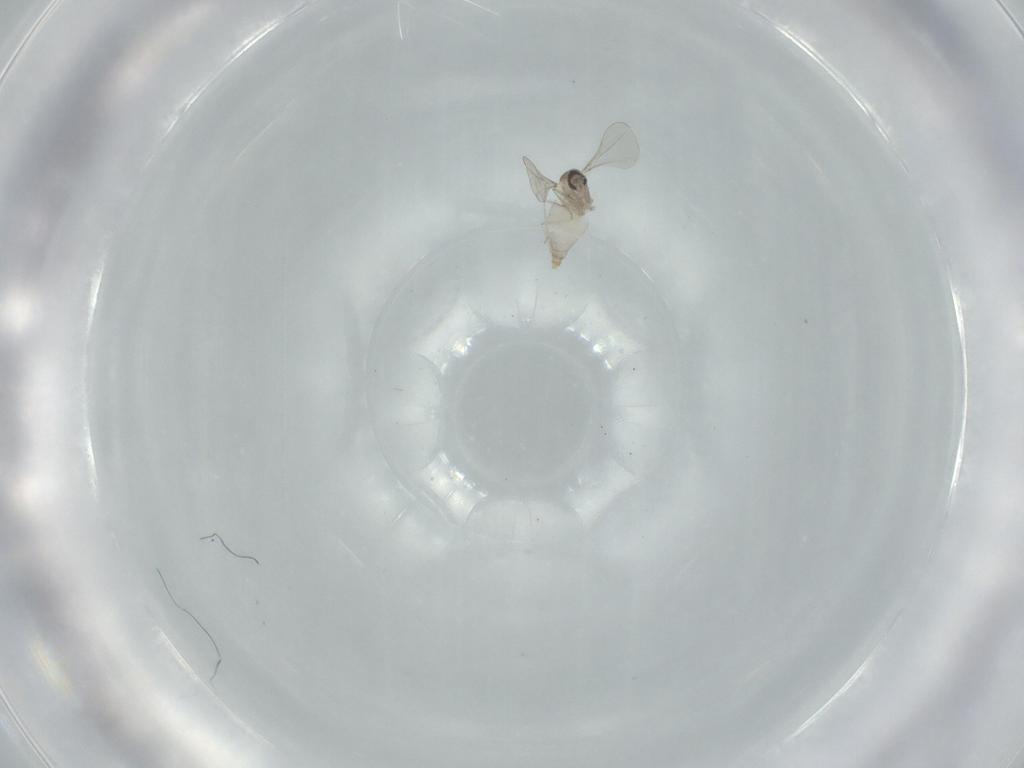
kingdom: Animalia
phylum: Arthropoda
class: Insecta
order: Diptera
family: Cecidomyiidae
